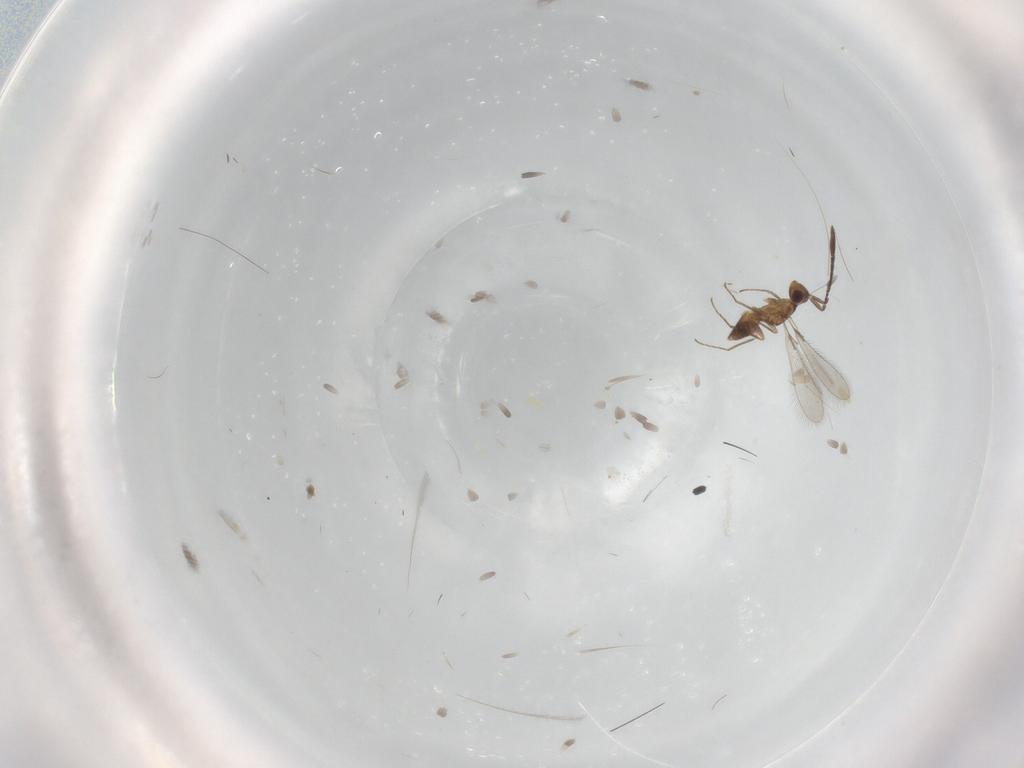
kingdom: Animalia
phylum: Arthropoda
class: Insecta
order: Hymenoptera
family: Mymaridae
